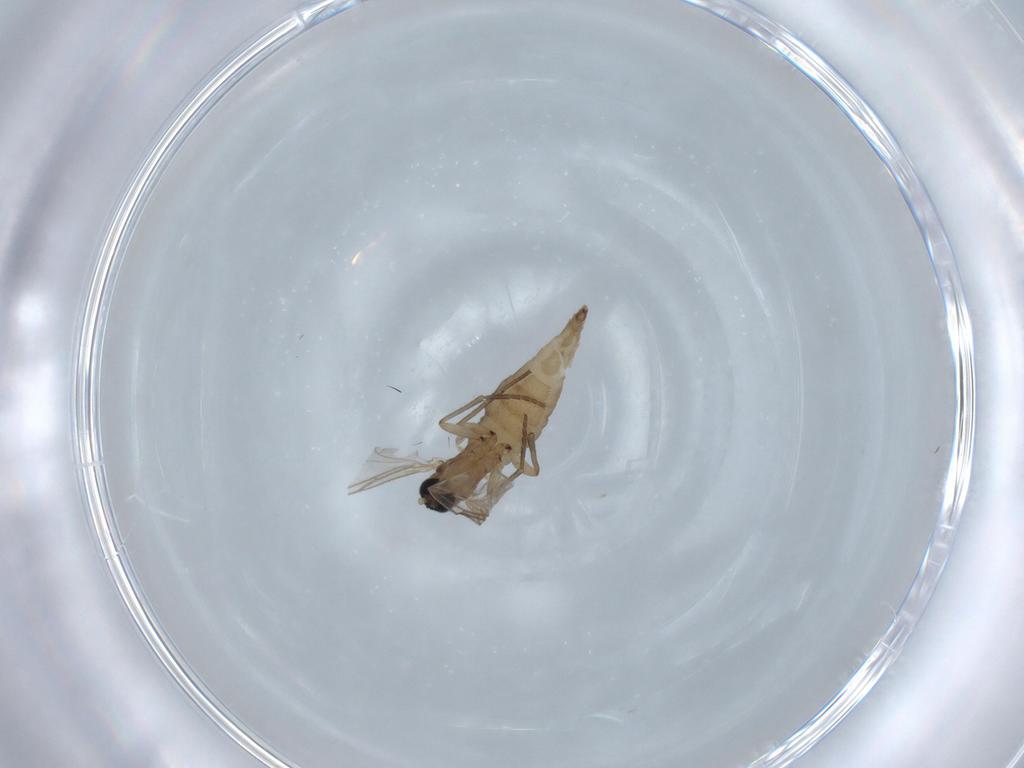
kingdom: Animalia
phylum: Arthropoda
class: Insecta
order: Diptera
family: Sciaridae
